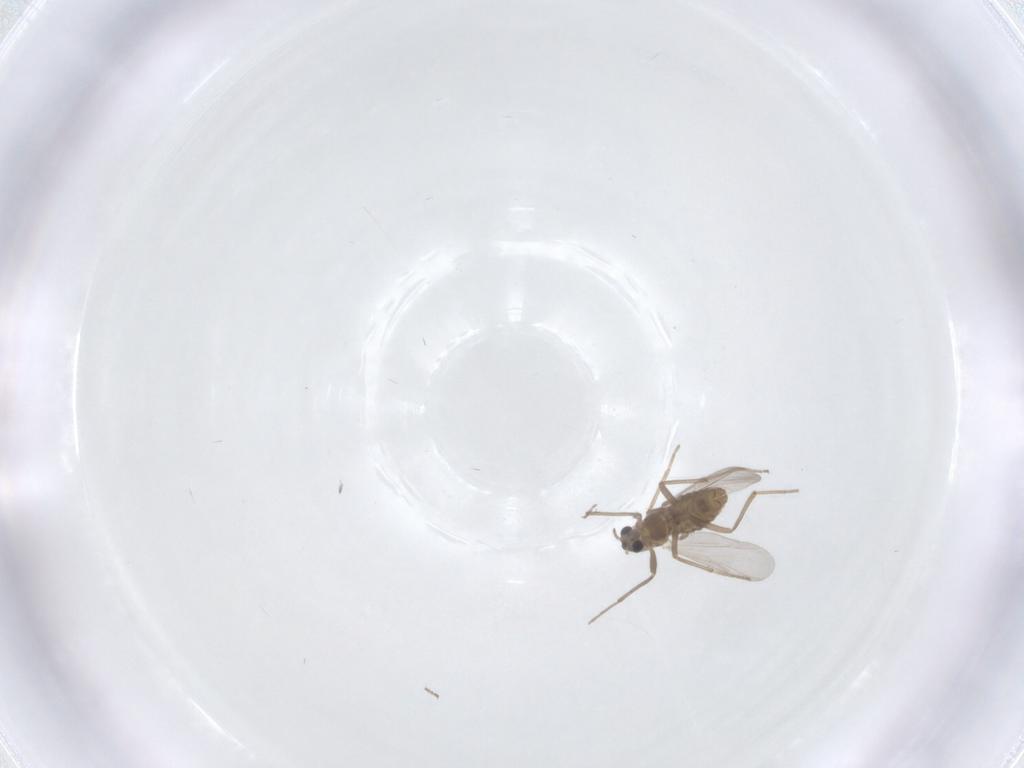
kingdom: Animalia
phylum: Arthropoda
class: Insecta
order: Diptera
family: Chironomidae
